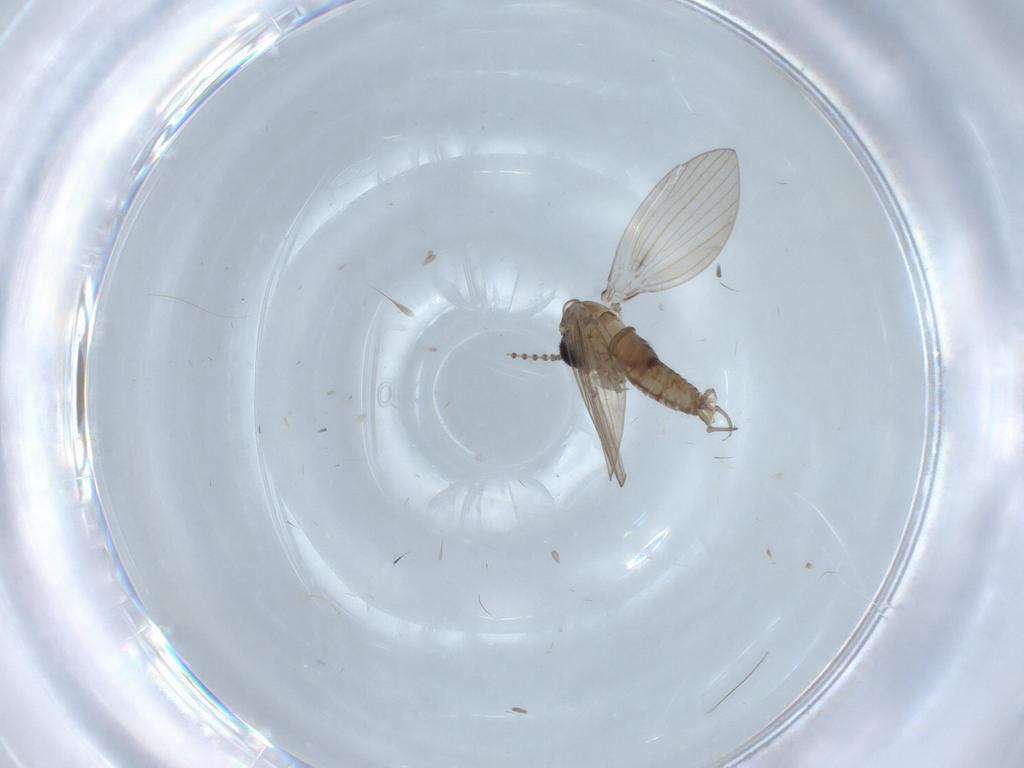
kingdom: Animalia
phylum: Arthropoda
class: Insecta
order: Diptera
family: Psychodidae
